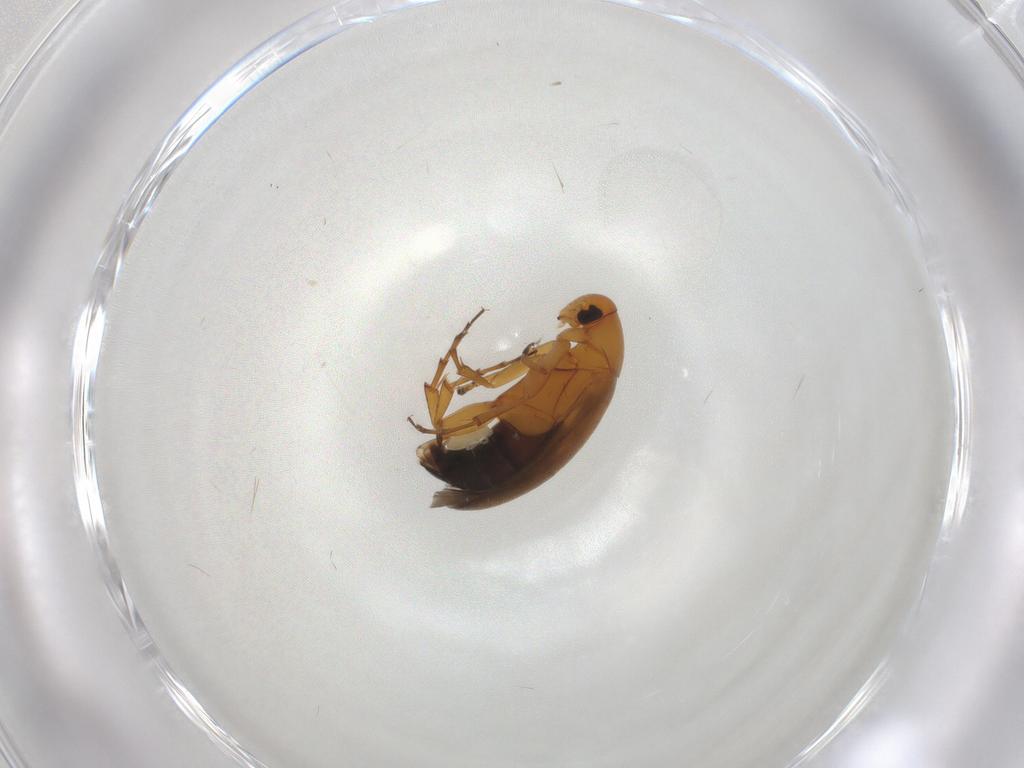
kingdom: Animalia
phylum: Arthropoda
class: Insecta
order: Coleoptera
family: Scraptiidae
